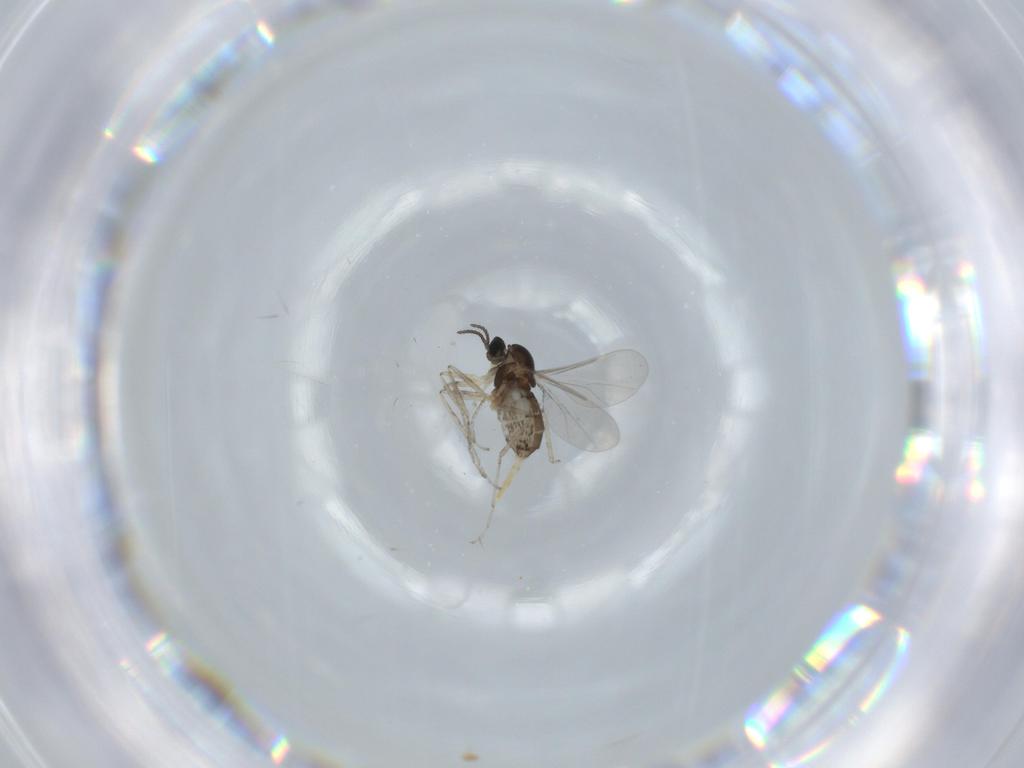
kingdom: Animalia
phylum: Arthropoda
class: Insecta
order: Diptera
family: Cecidomyiidae
